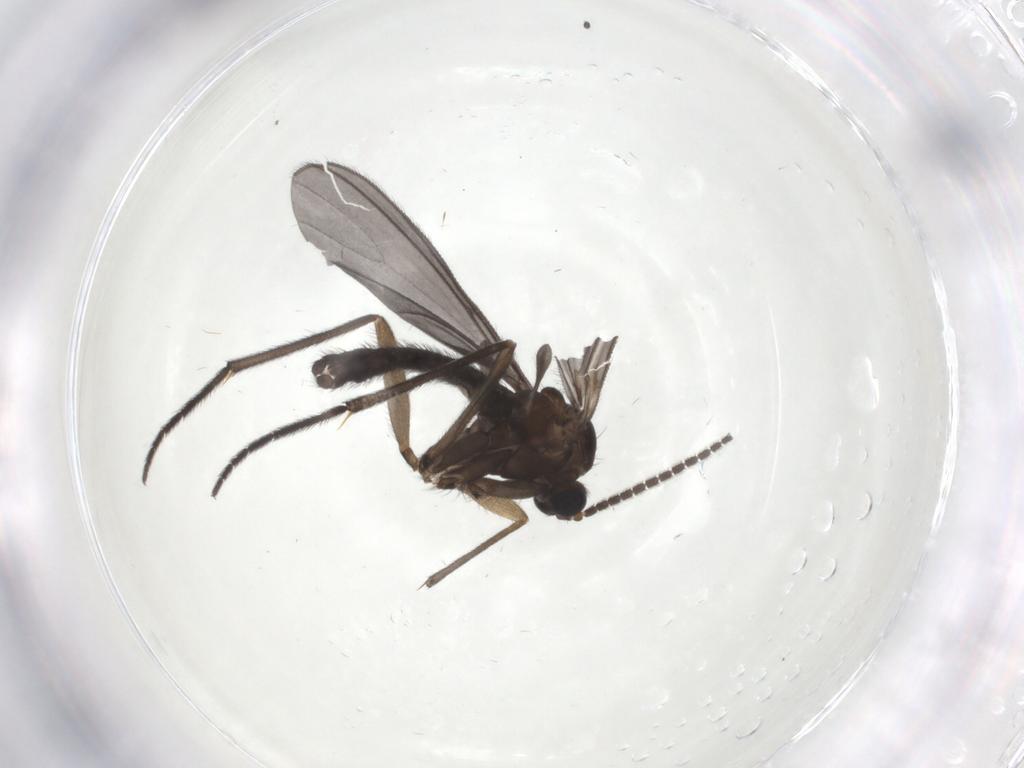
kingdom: Animalia
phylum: Arthropoda
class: Insecta
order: Diptera
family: Sciaridae
